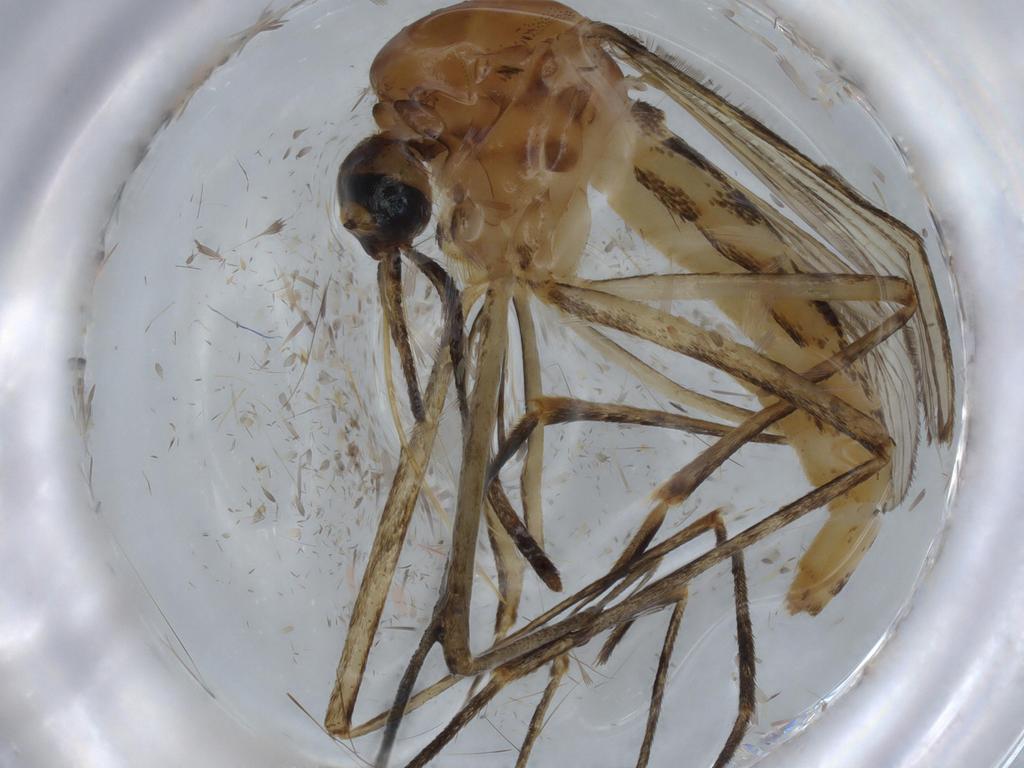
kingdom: Animalia
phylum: Arthropoda
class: Insecta
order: Diptera
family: Culicidae
